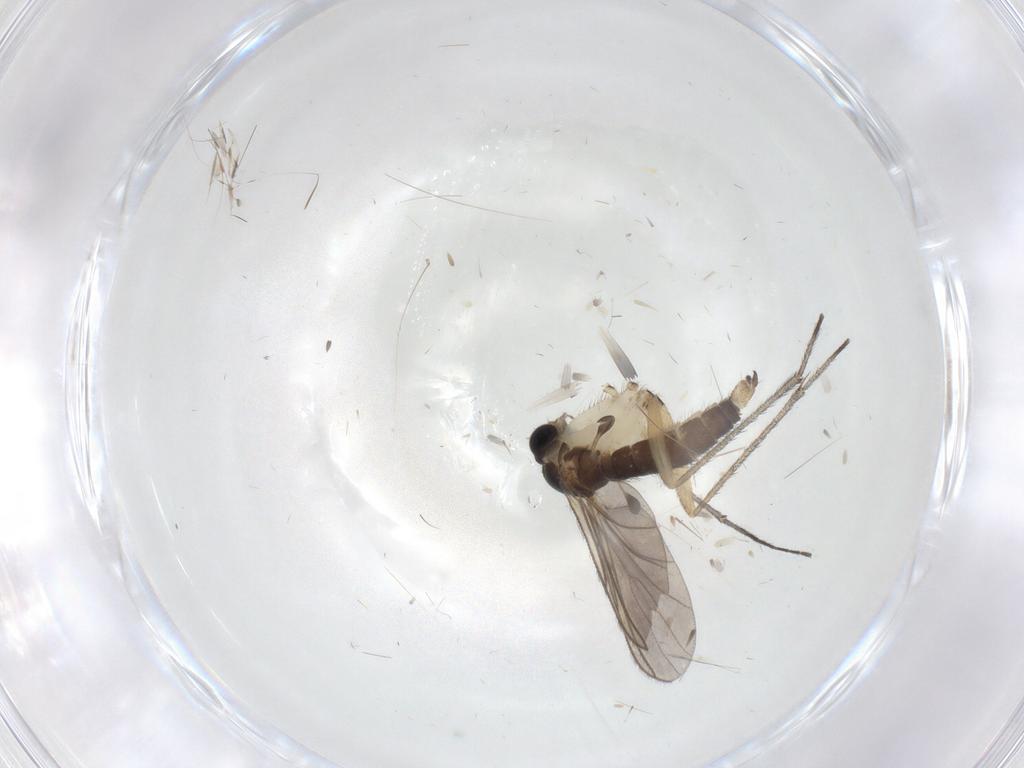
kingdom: Animalia
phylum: Arthropoda
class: Insecta
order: Diptera
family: Sciaridae
